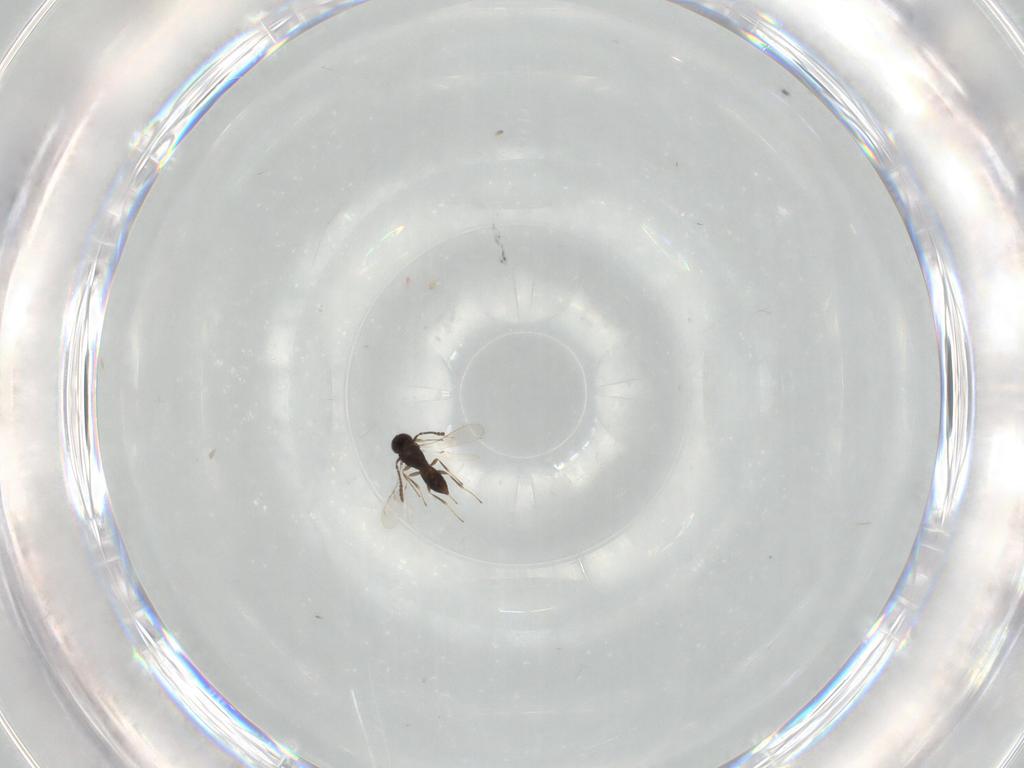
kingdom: Animalia
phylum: Arthropoda
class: Insecta
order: Hymenoptera
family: Scelionidae
